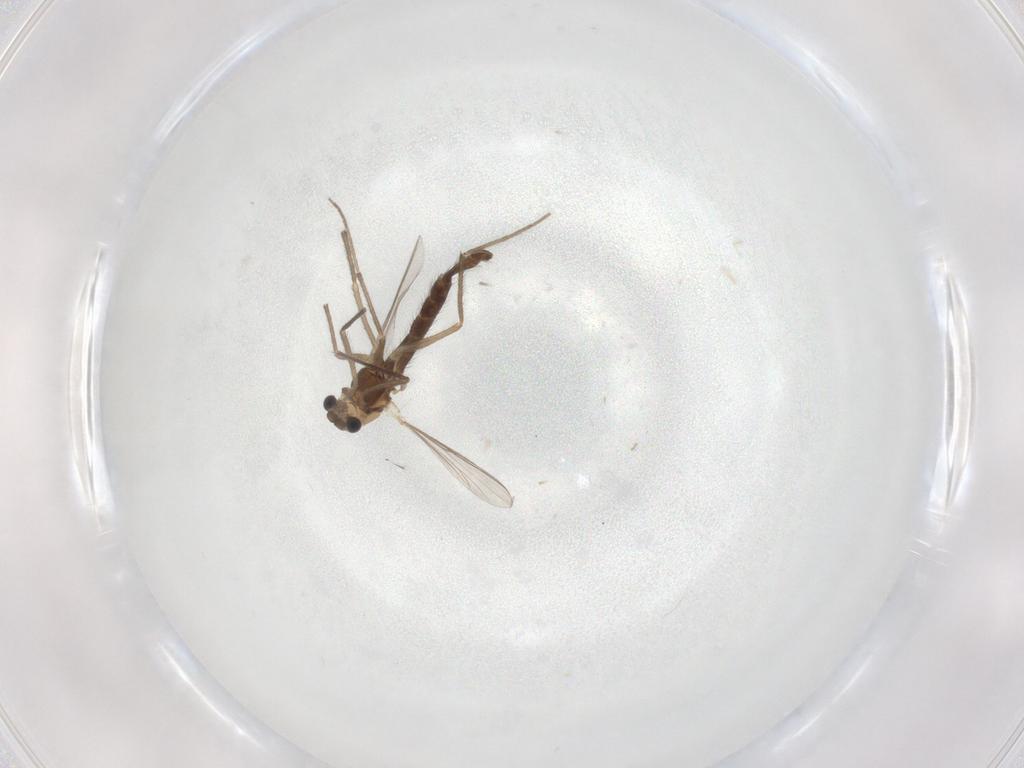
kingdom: Animalia
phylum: Arthropoda
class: Insecta
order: Diptera
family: Chironomidae
